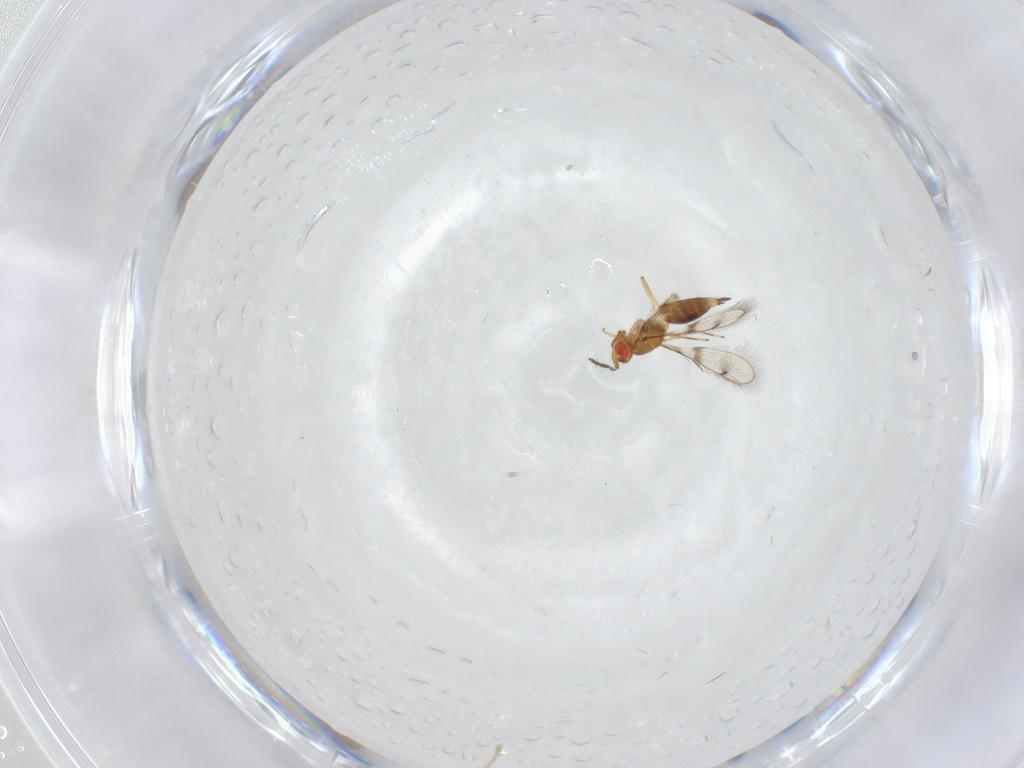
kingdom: Animalia
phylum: Arthropoda
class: Insecta
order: Hymenoptera
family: Eulophidae
